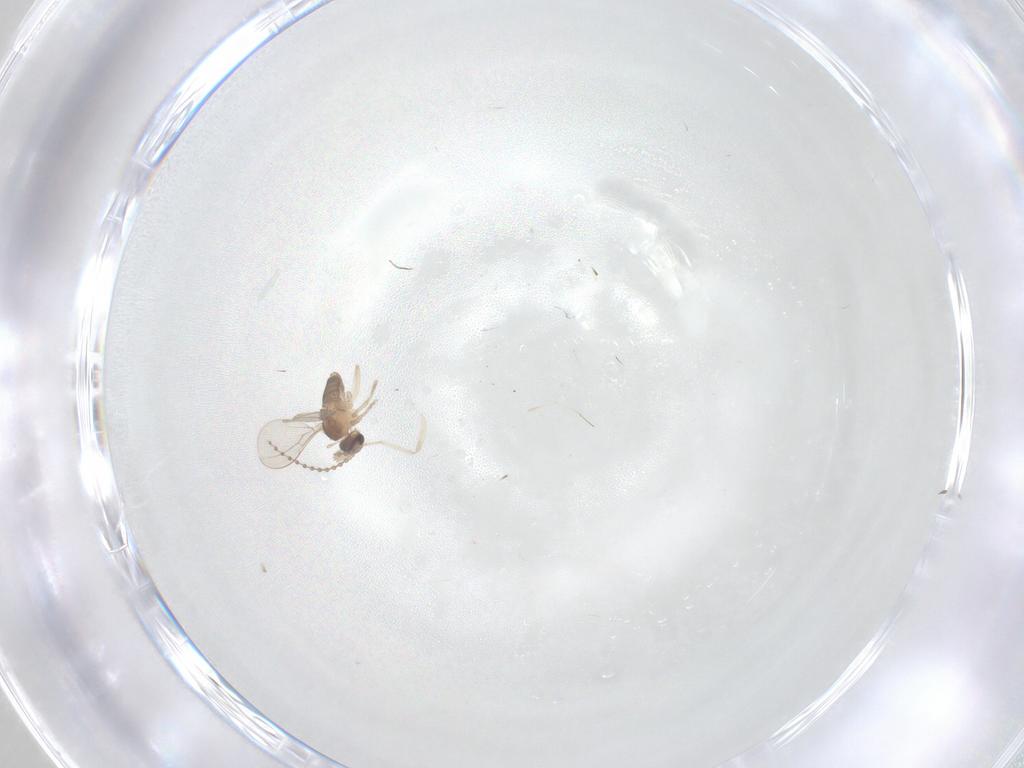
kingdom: Animalia
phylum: Arthropoda
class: Insecta
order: Diptera
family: Cecidomyiidae
